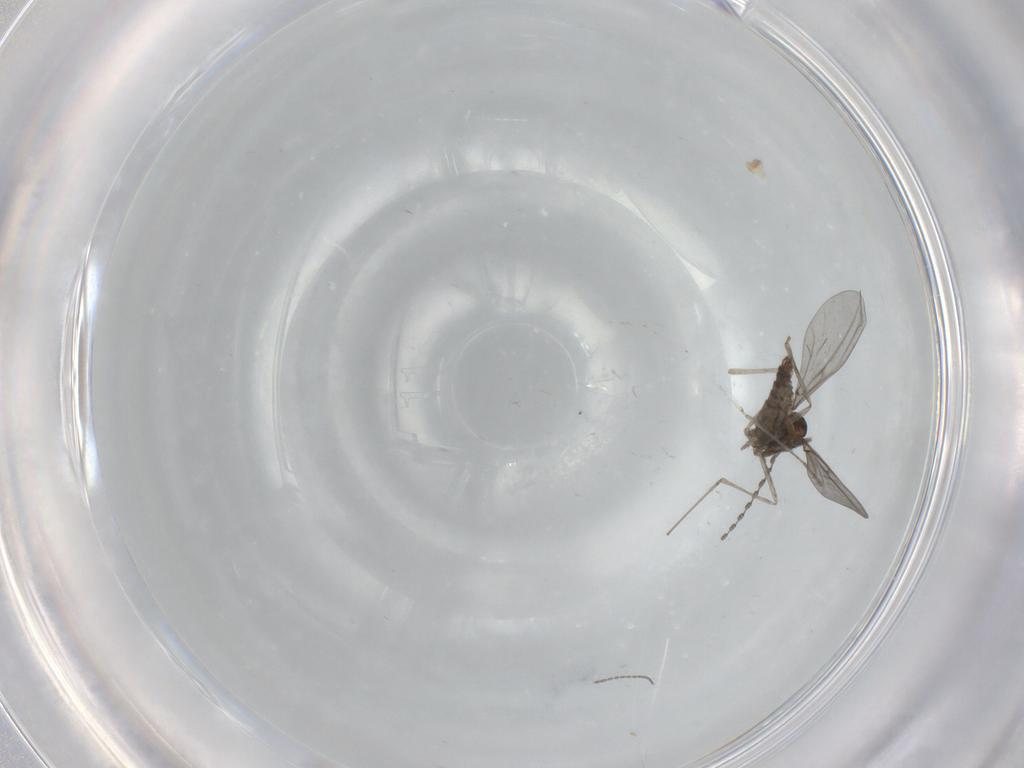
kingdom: Animalia
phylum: Arthropoda
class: Insecta
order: Diptera
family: Cecidomyiidae
